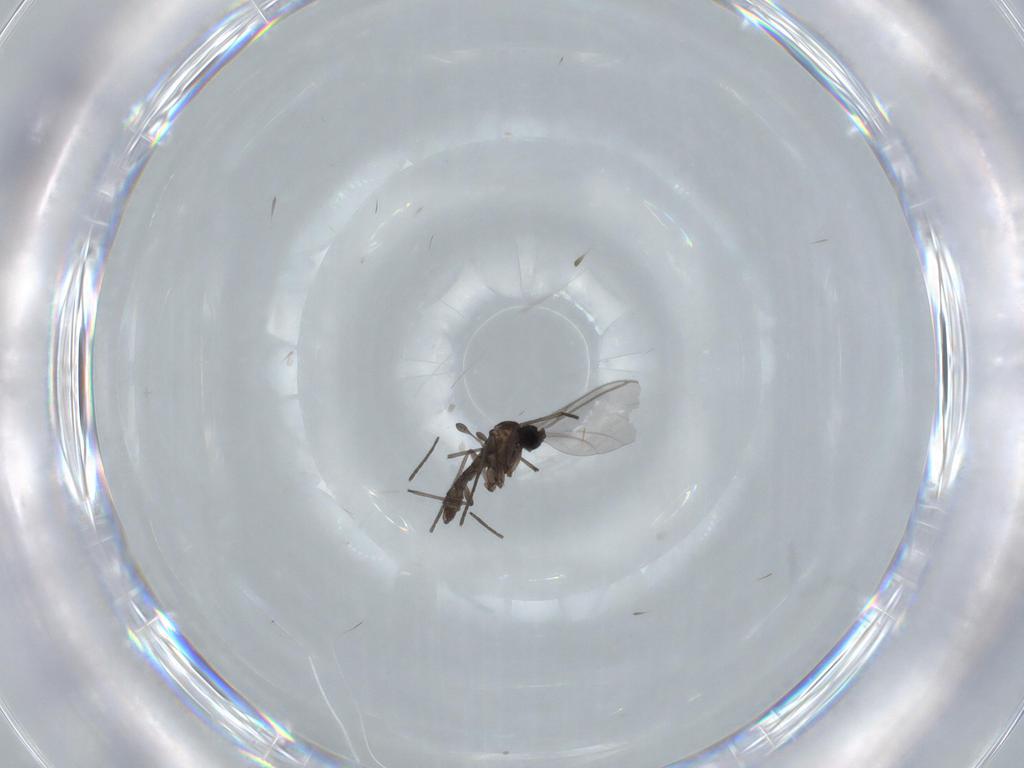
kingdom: Animalia
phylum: Arthropoda
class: Insecta
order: Diptera
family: Sciaridae
